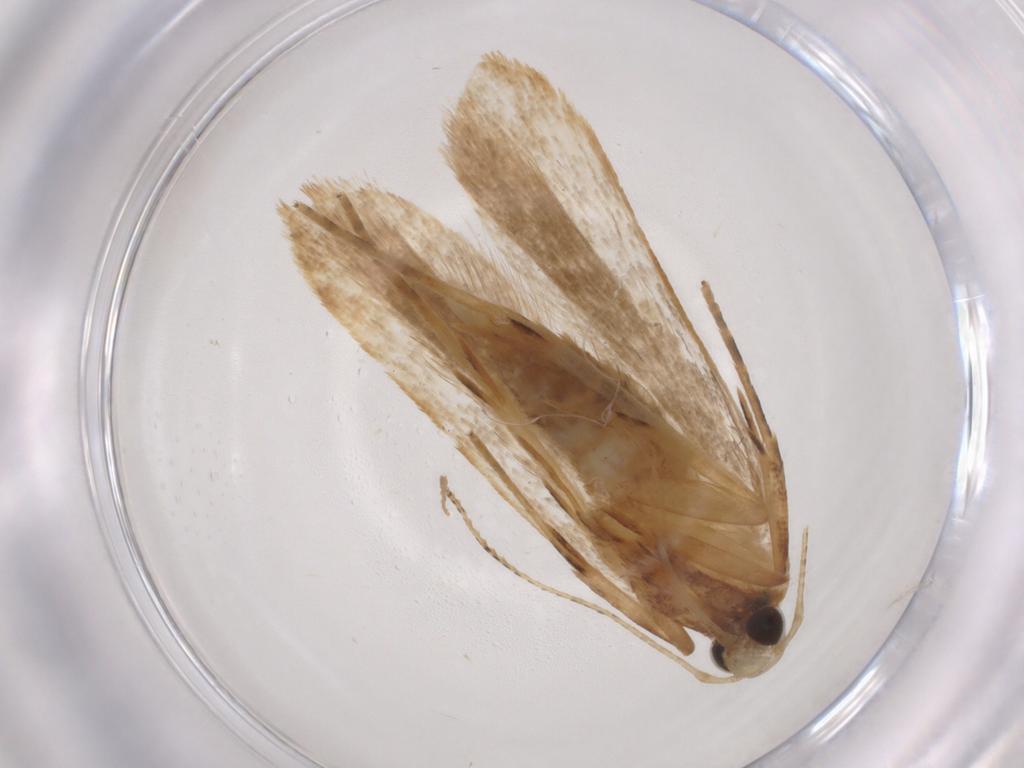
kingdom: Animalia
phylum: Arthropoda
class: Insecta
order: Lepidoptera
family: Gelechiidae
